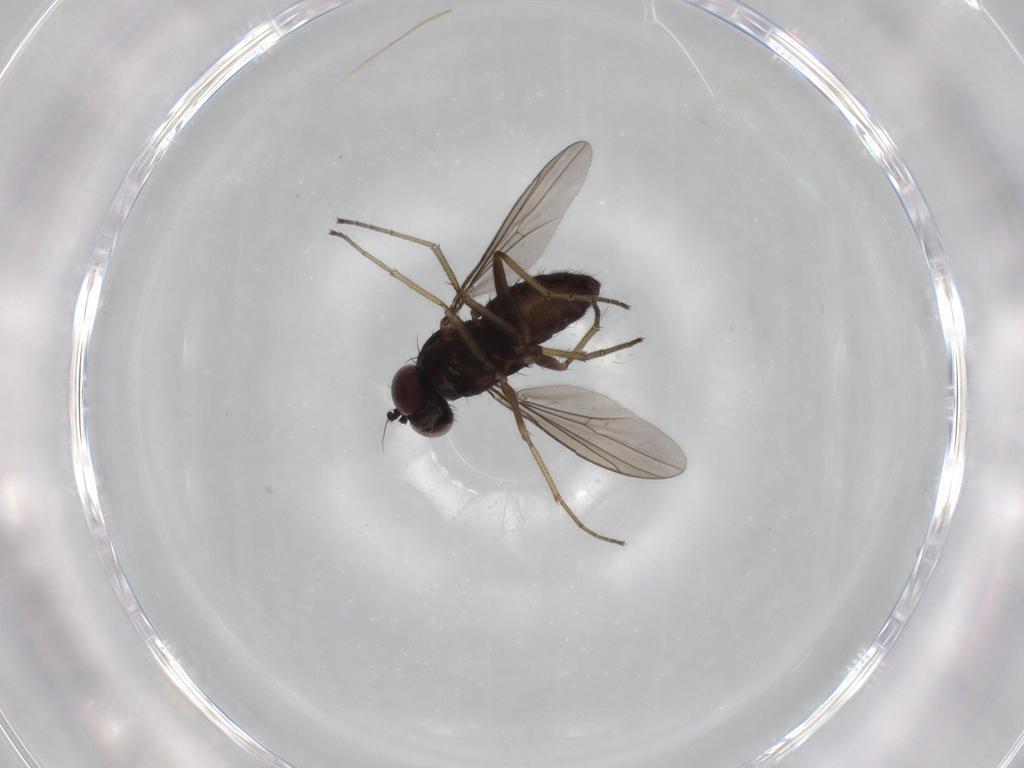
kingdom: Animalia
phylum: Arthropoda
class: Insecta
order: Diptera
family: Dolichopodidae
